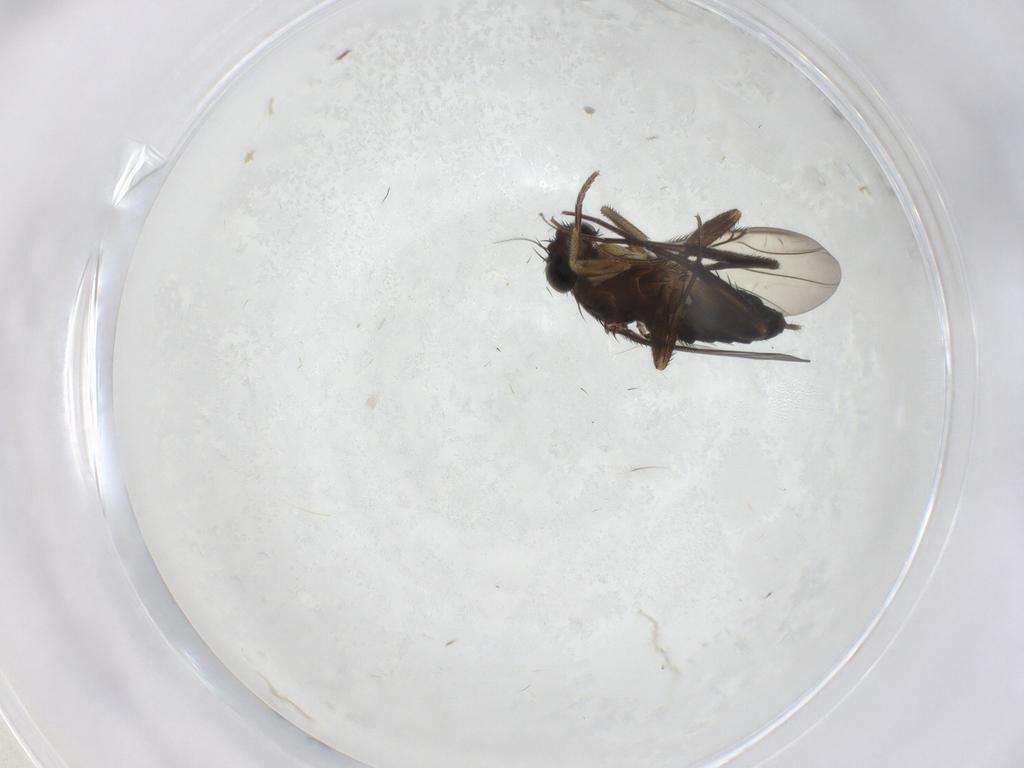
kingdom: Animalia
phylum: Arthropoda
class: Insecta
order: Diptera
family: Phoridae
